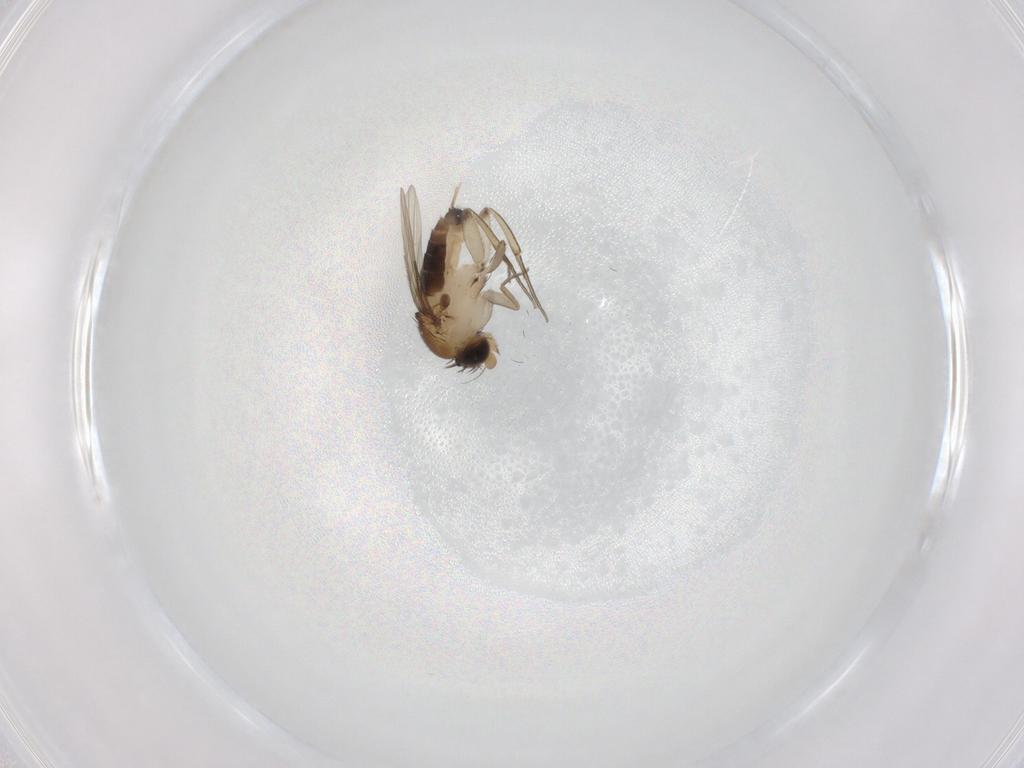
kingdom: Animalia
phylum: Arthropoda
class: Insecta
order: Diptera
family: Phoridae
